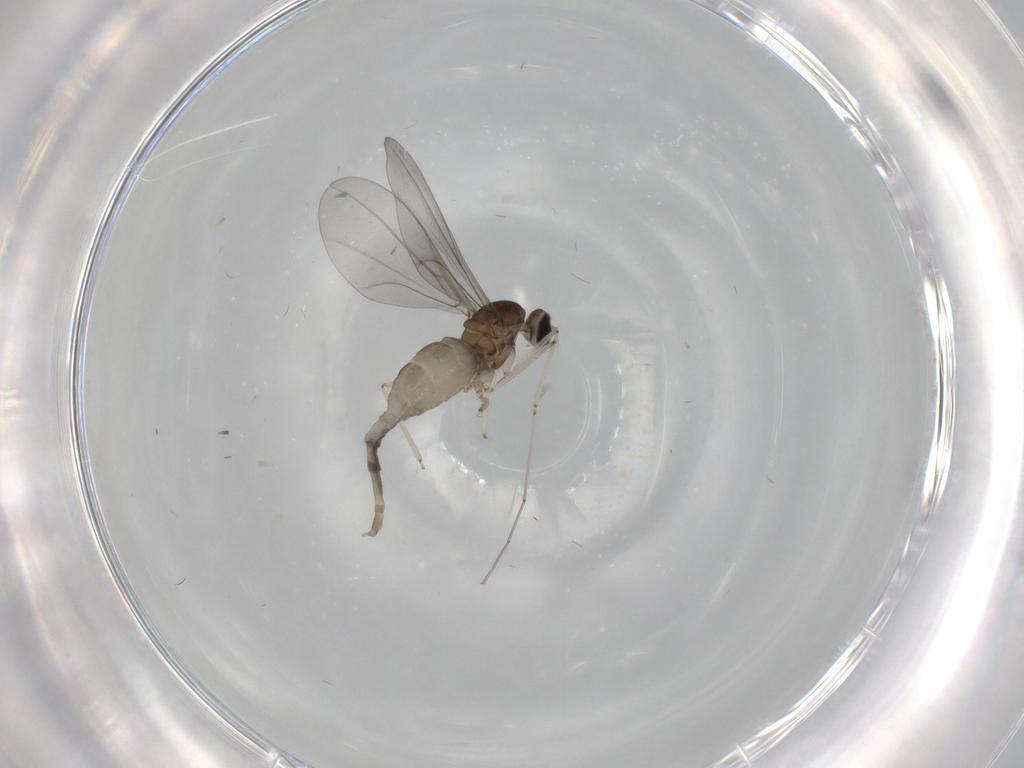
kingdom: Animalia
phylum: Arthropoda
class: Insecta
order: Diptera
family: Cecidomyiidae
